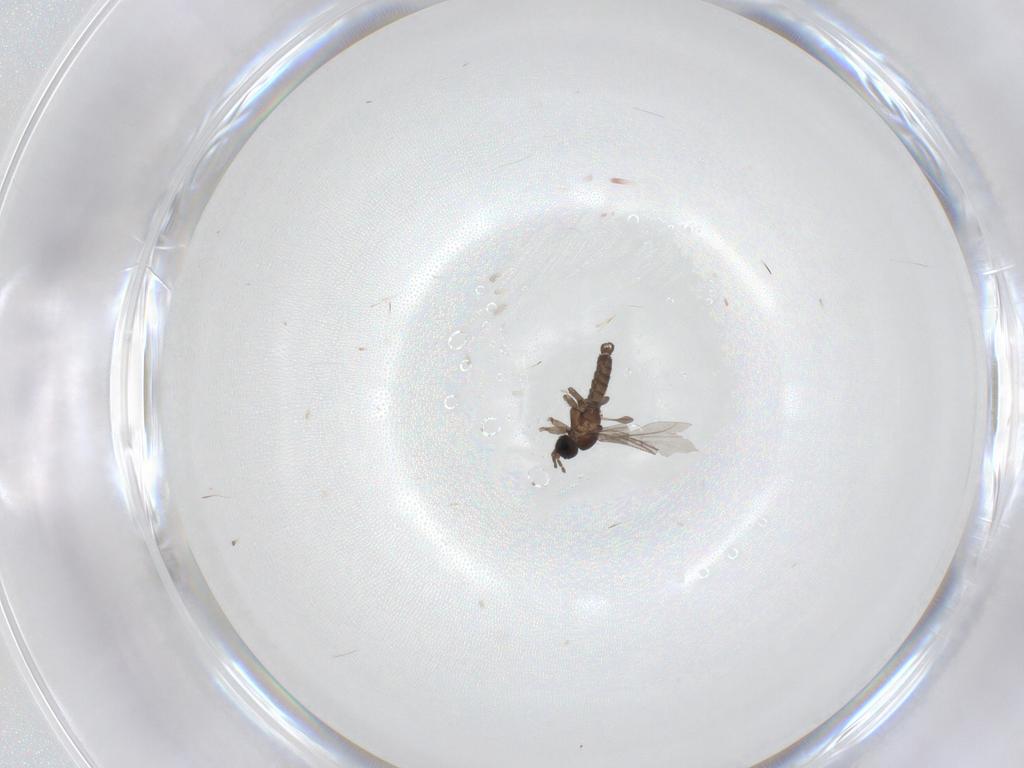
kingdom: Animalia
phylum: Arthropoda
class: Insecta
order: Diptera
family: Sciaridae
